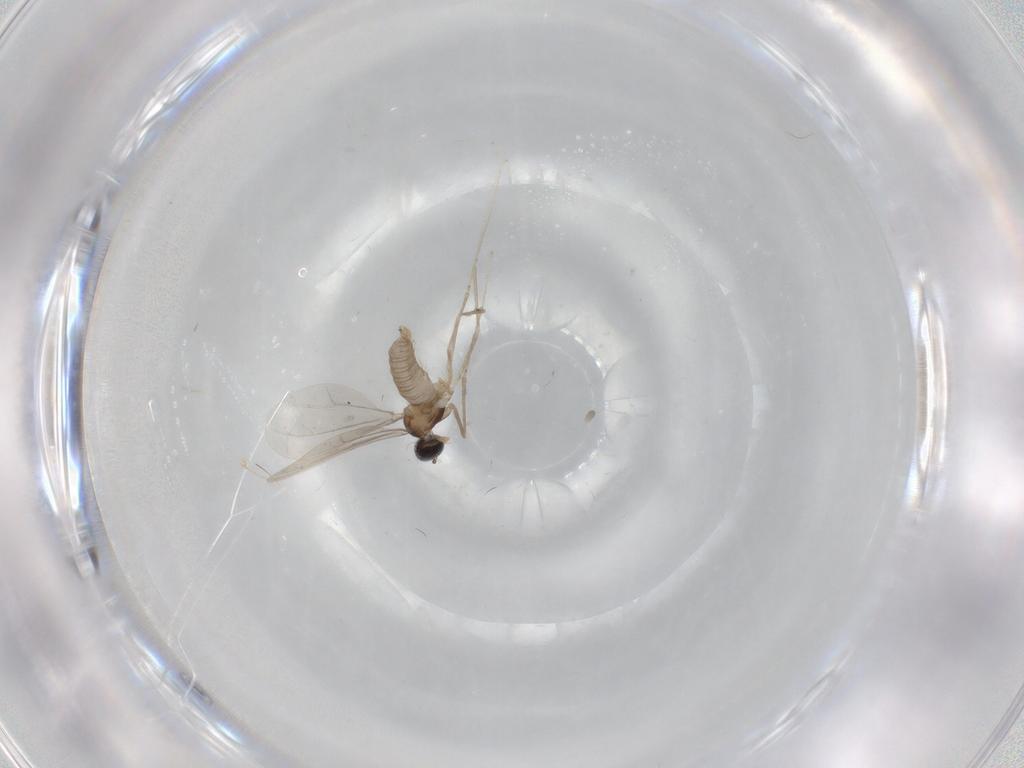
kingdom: Animalia
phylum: Arthropoda
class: Insecta
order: Diptera
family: Cecidomyiidae
